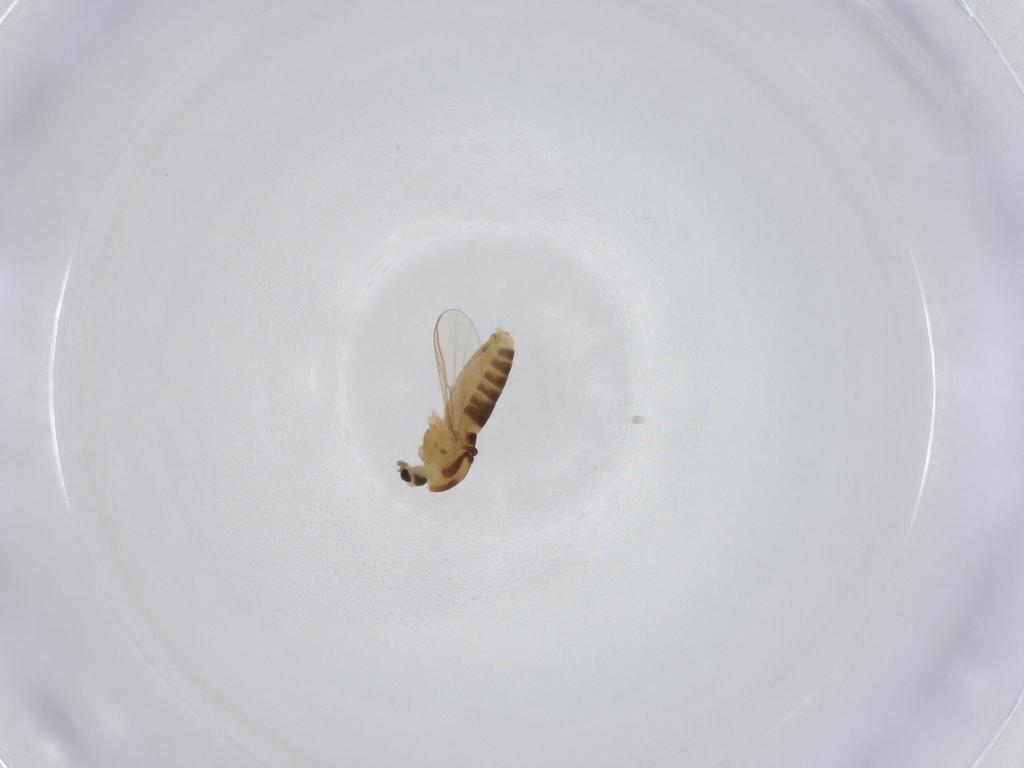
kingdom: Animalia
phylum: Arthropoda
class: Insecta
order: Diptera
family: Chironomidae
